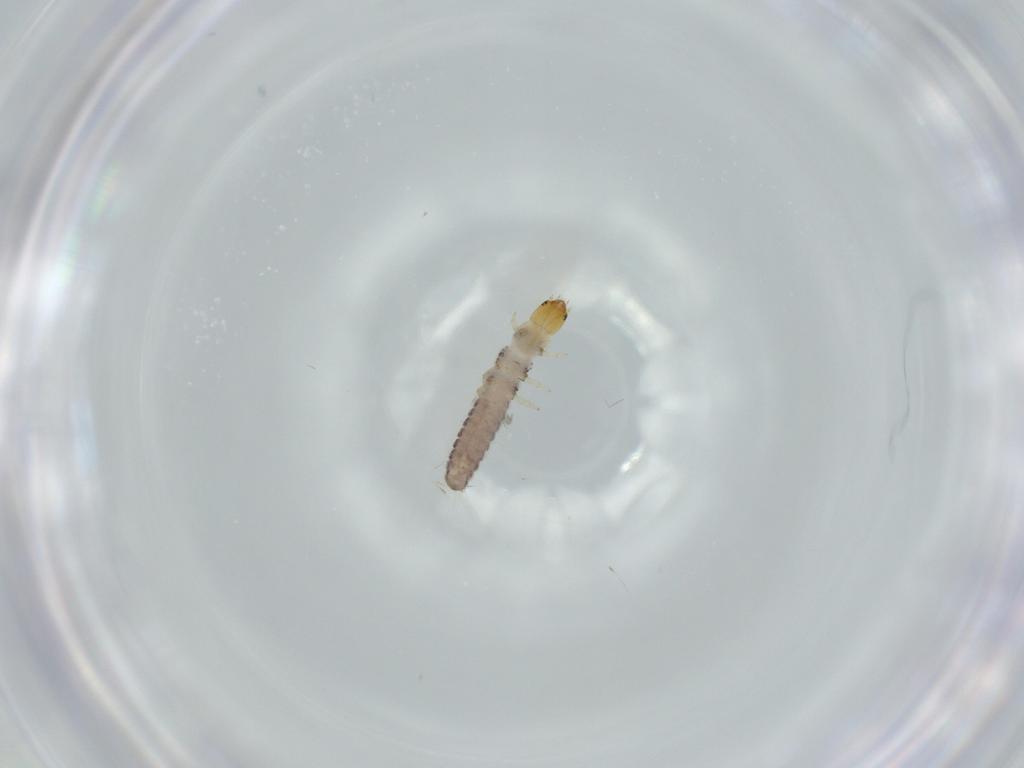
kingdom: Animalia
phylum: Arthropoda
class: Insecta
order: Coleoptera
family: Cleridae
